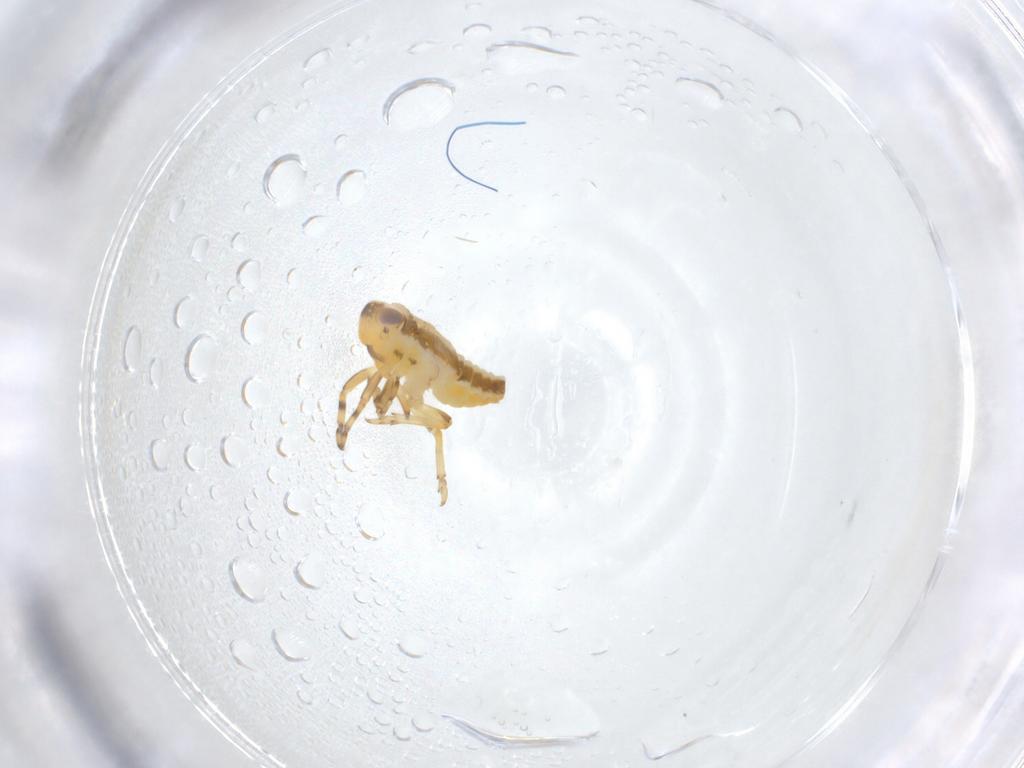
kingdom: Animalia
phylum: Arthropoda
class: Insecta
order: Hemiptera
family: Issidae
